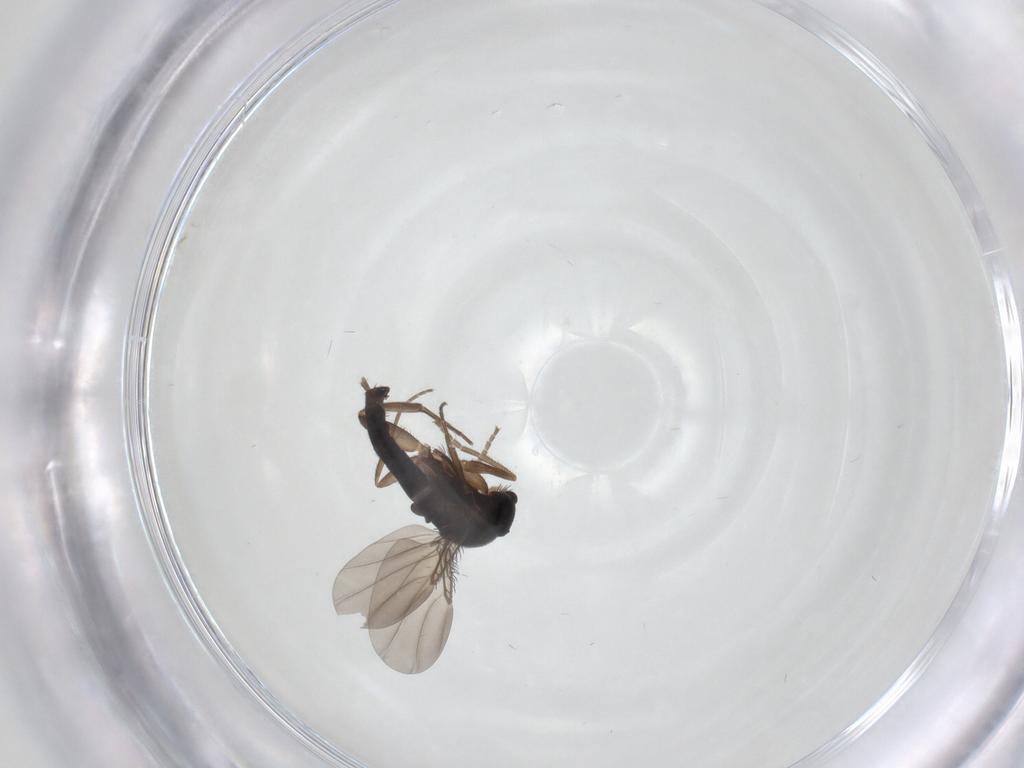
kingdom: Animalia
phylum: Arthropoda
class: Insecta
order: Diptera
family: Phoridae
